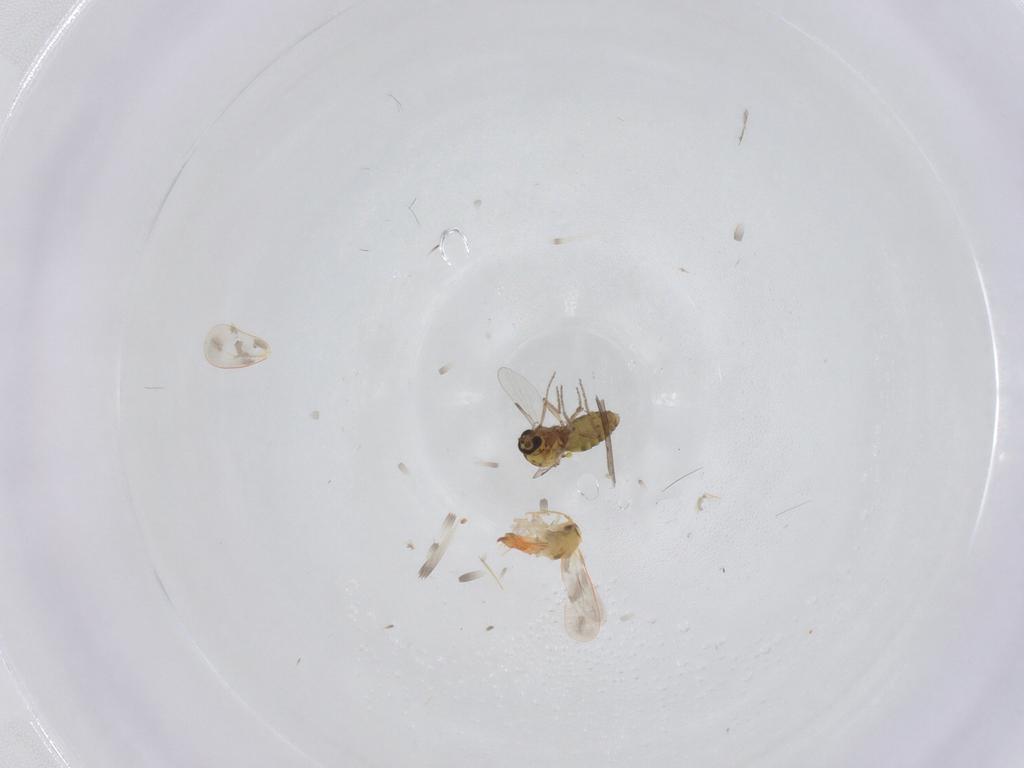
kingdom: Animalia
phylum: Arthropoda
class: Insecta
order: Diptera
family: Ceratopogonidae
